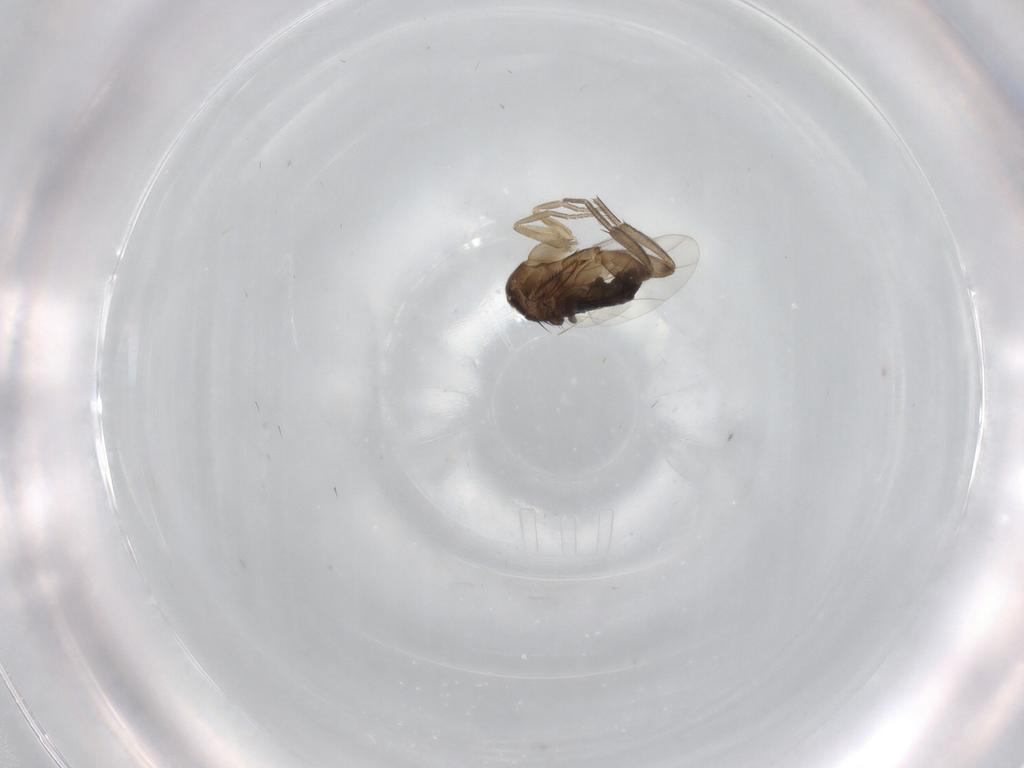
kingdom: Animalia
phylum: Arthropoda
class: Insecta
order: Diptera
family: Phoridae
